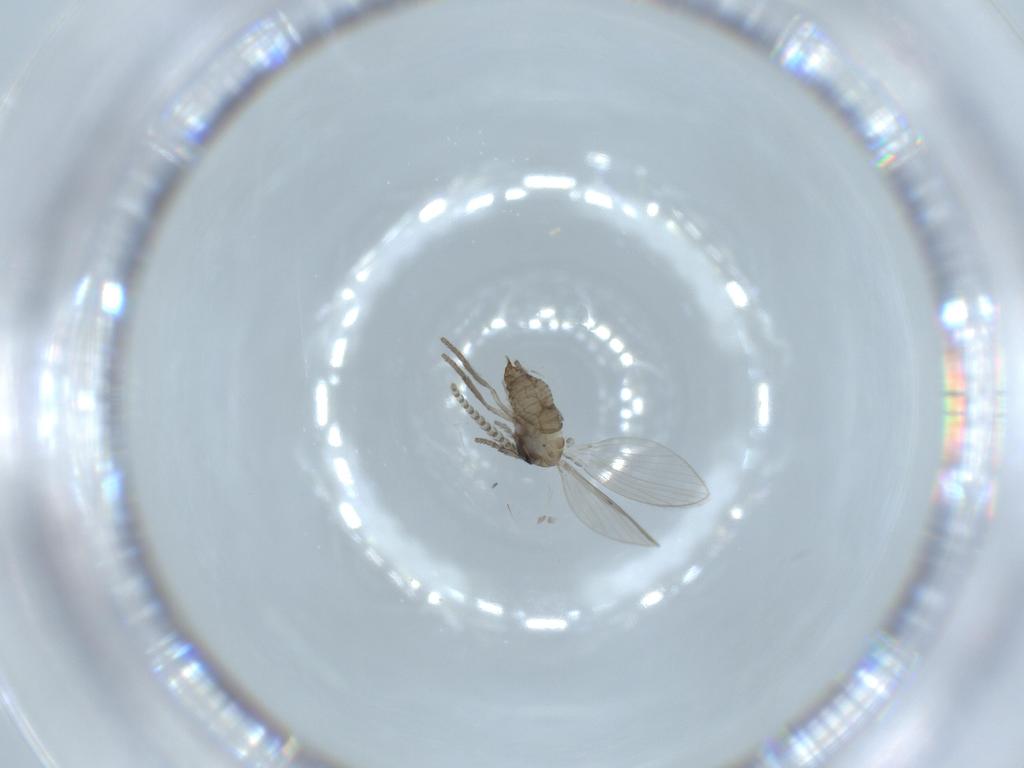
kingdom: Animalia
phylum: Arthropoda
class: Insecta
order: Diptera
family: Psychodidae
